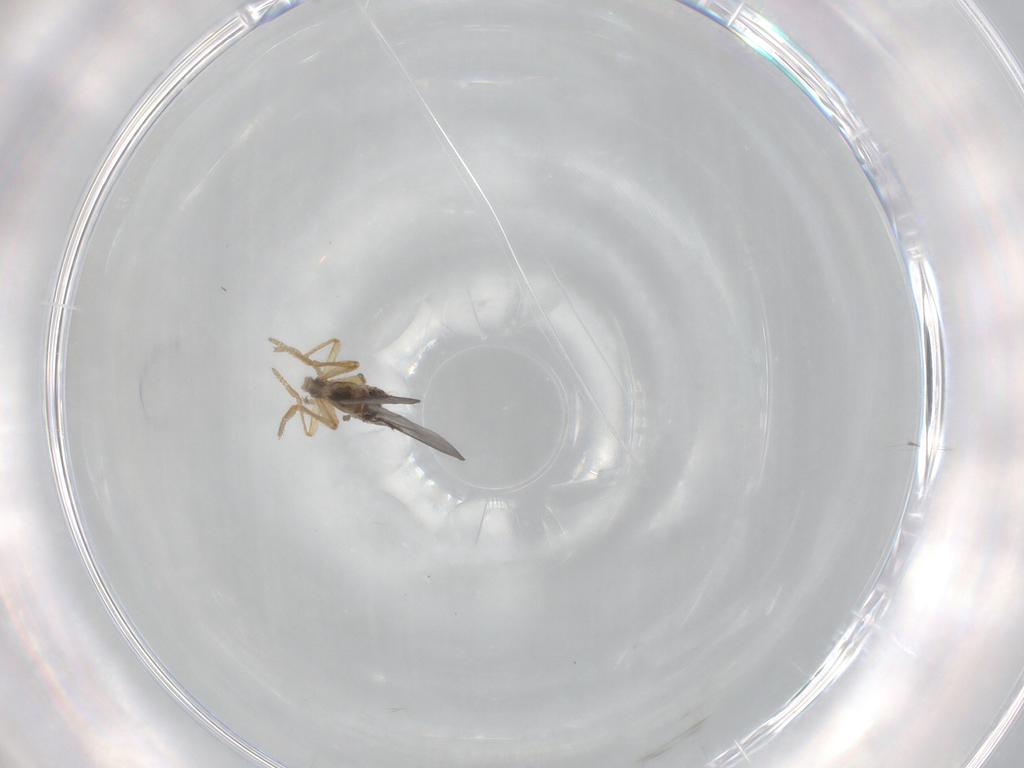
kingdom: Animalia
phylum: Arthropoda
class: Insecta
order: Diptera
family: Phoridae
